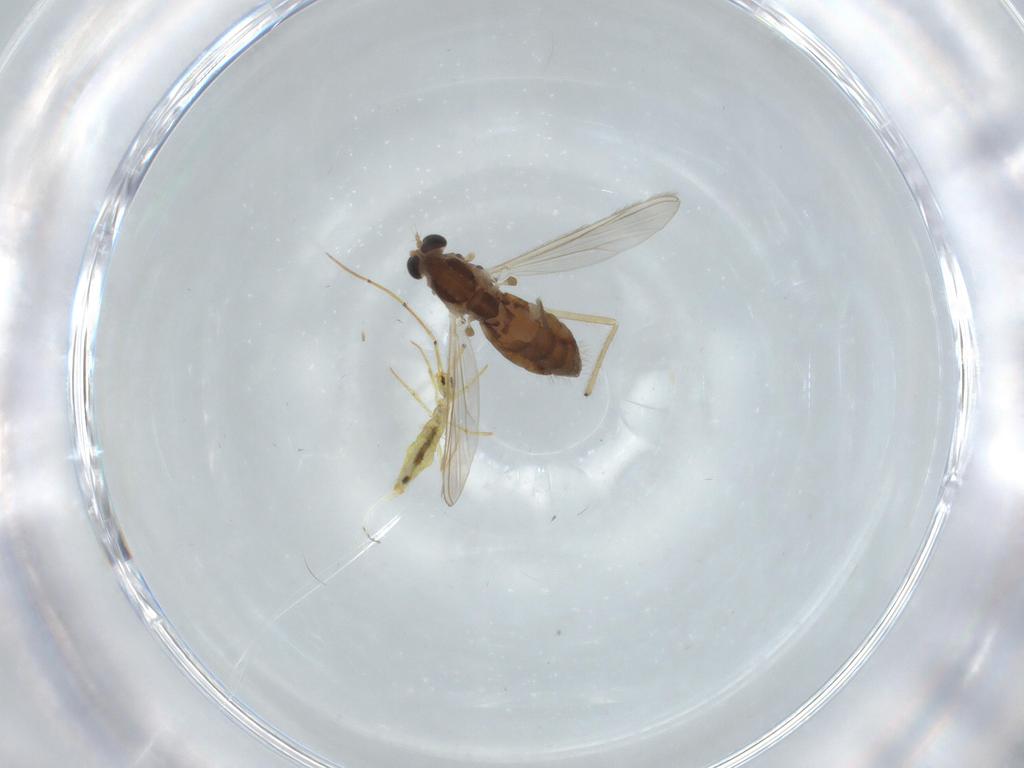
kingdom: Animalia
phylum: Arthropoda
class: Insecta
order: Diptera
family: Chironomidae
